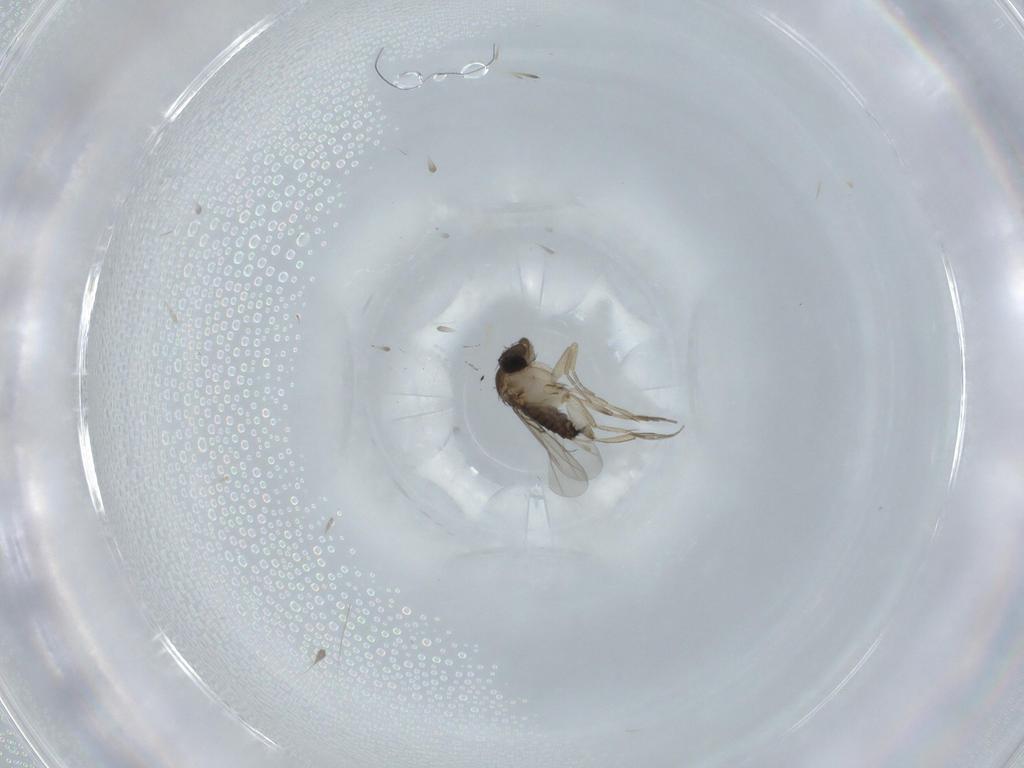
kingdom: Animalia
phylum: Arthropoda
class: Insecta
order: Diptera
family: Phoridae
